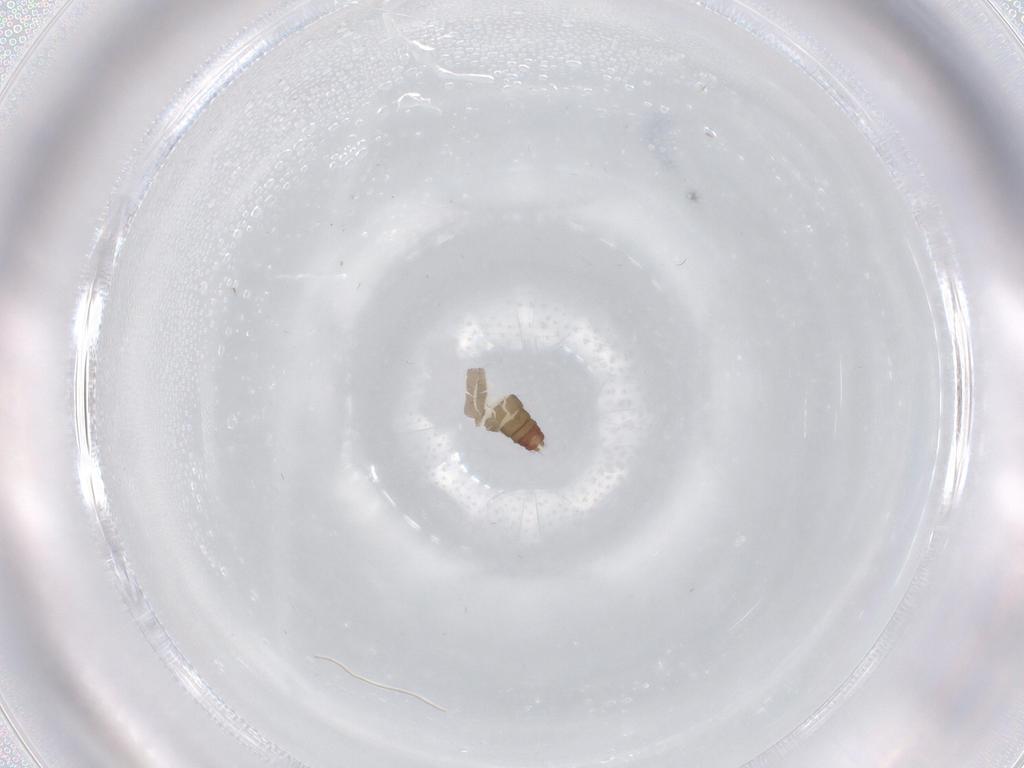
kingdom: Animalia
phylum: Arthropoda
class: Insecta
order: Diptera
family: Ceratopogonidae
